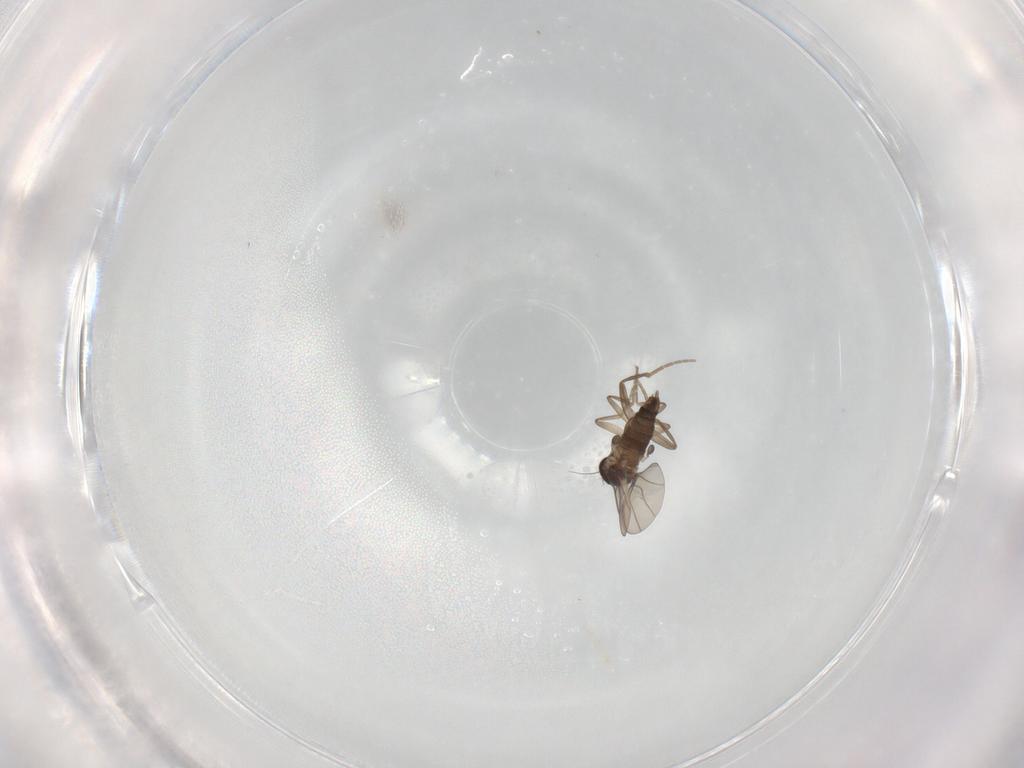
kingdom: Animalia
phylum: Arthropoda
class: Insecta
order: Diptera
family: Phoridae
